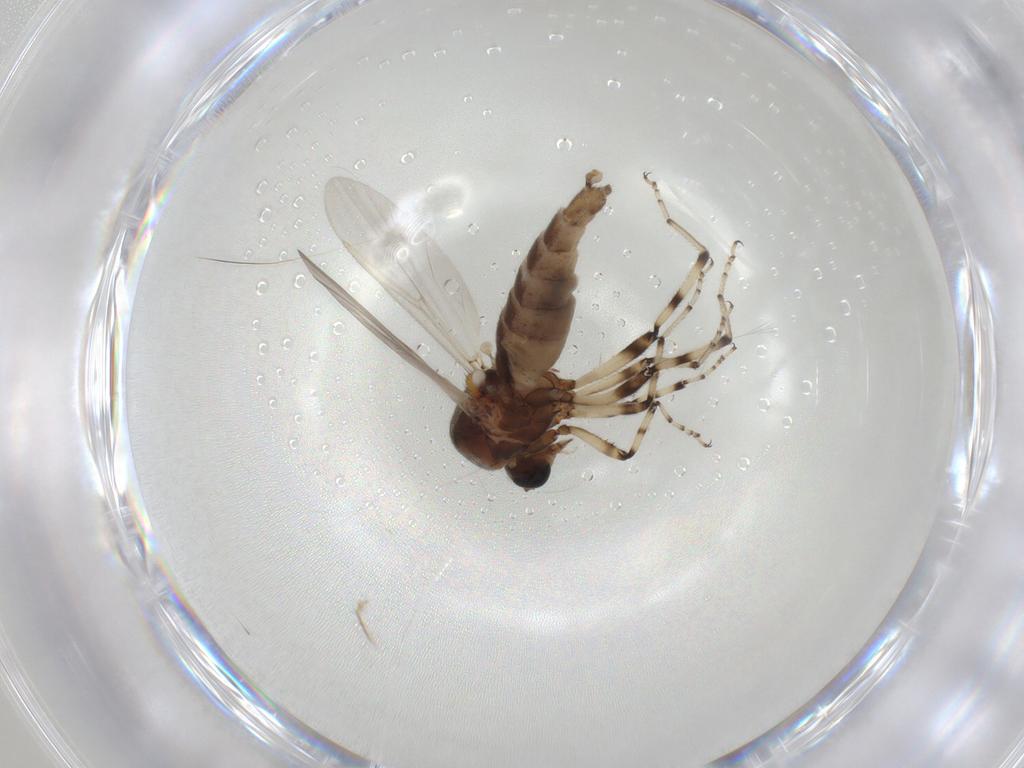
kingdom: Animalia
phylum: Arthropoda
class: Insecta
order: Diptera
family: Ceratopogonidae
